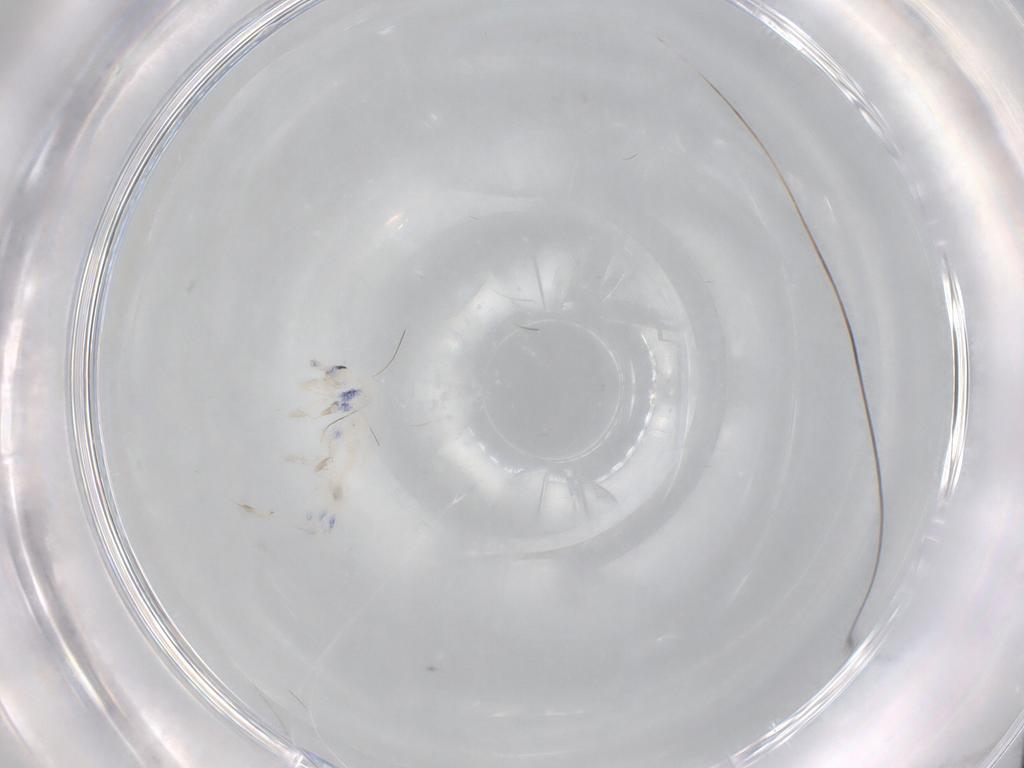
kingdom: Animalia
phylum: Arthropoda
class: Collembola
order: Entomobryomorpha
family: Entomobryidae
